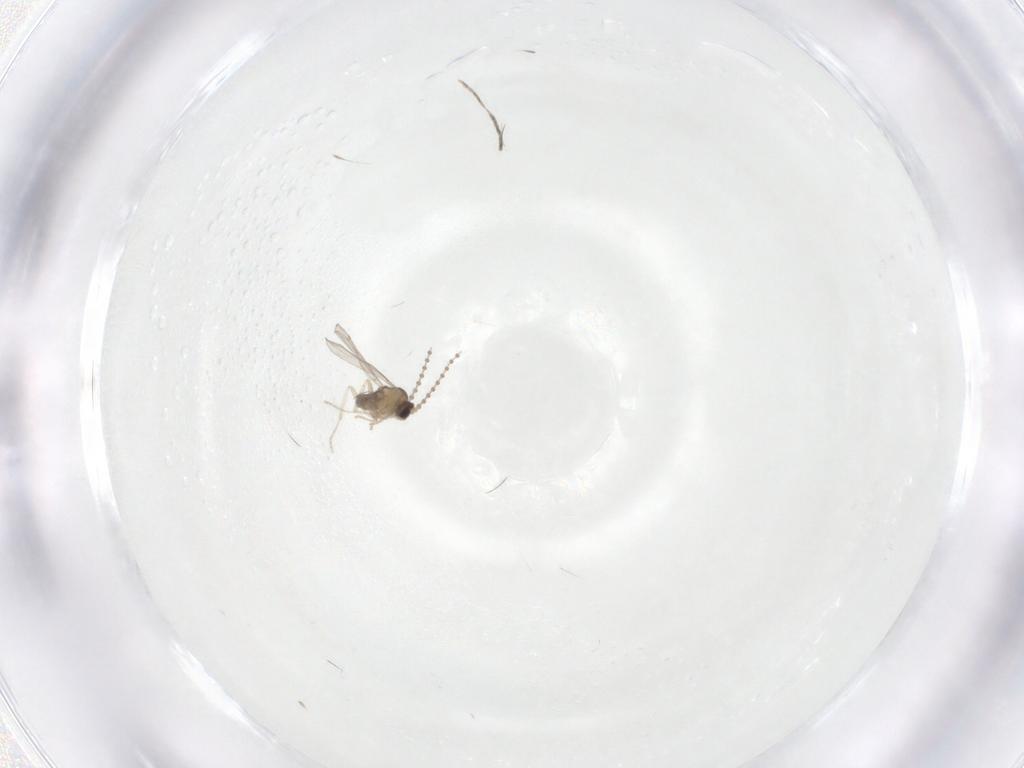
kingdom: Animalia
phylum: Arthropoda
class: Insecta
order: Diptera
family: Cecidomyiidae
